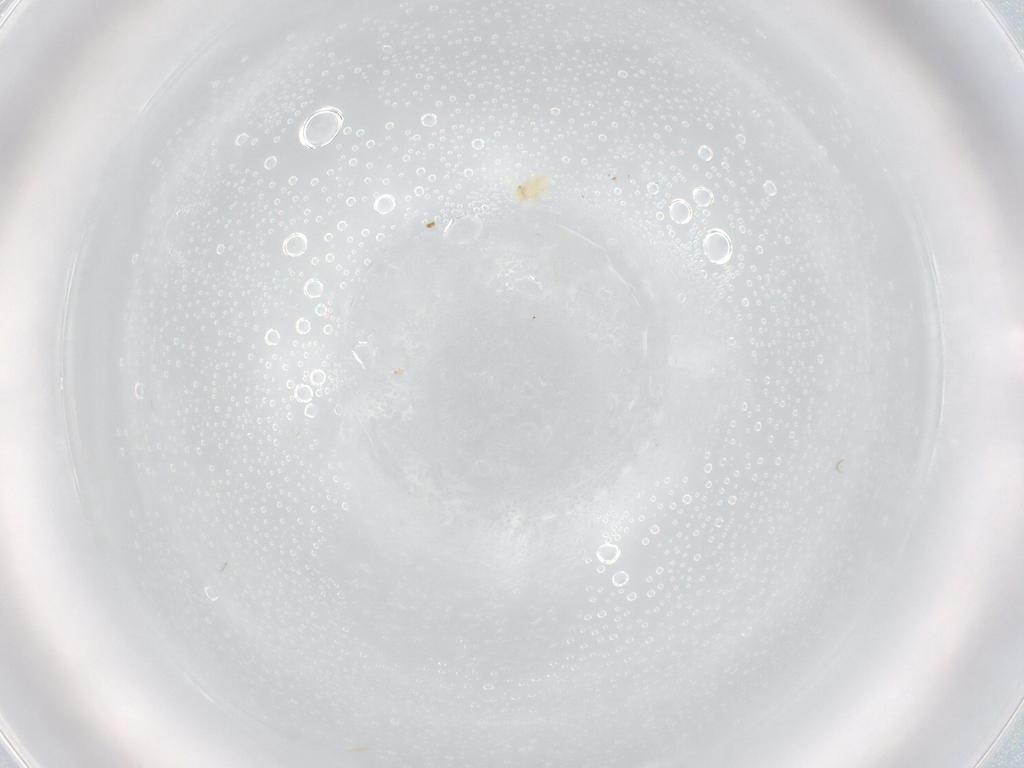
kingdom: Animalia
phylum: Arthropoda
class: Arachnida
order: Trombidiformes
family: Eupodidae
